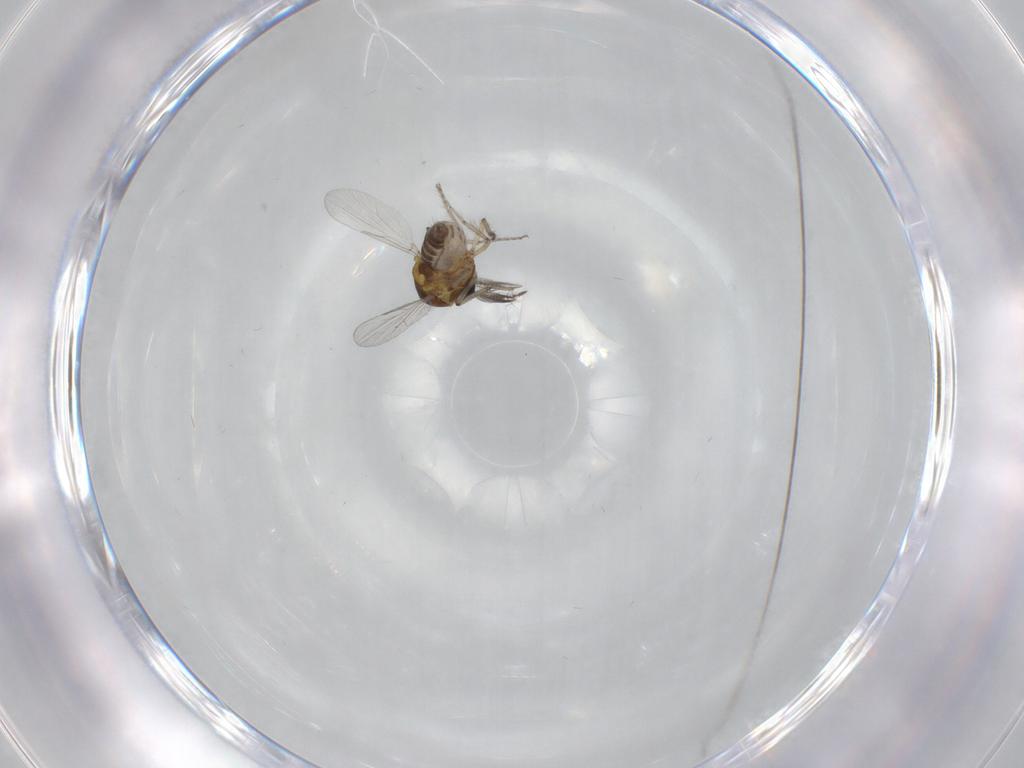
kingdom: Animalia
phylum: Arthropoda
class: Insecta
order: Diptera
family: Ceratopogonidae
